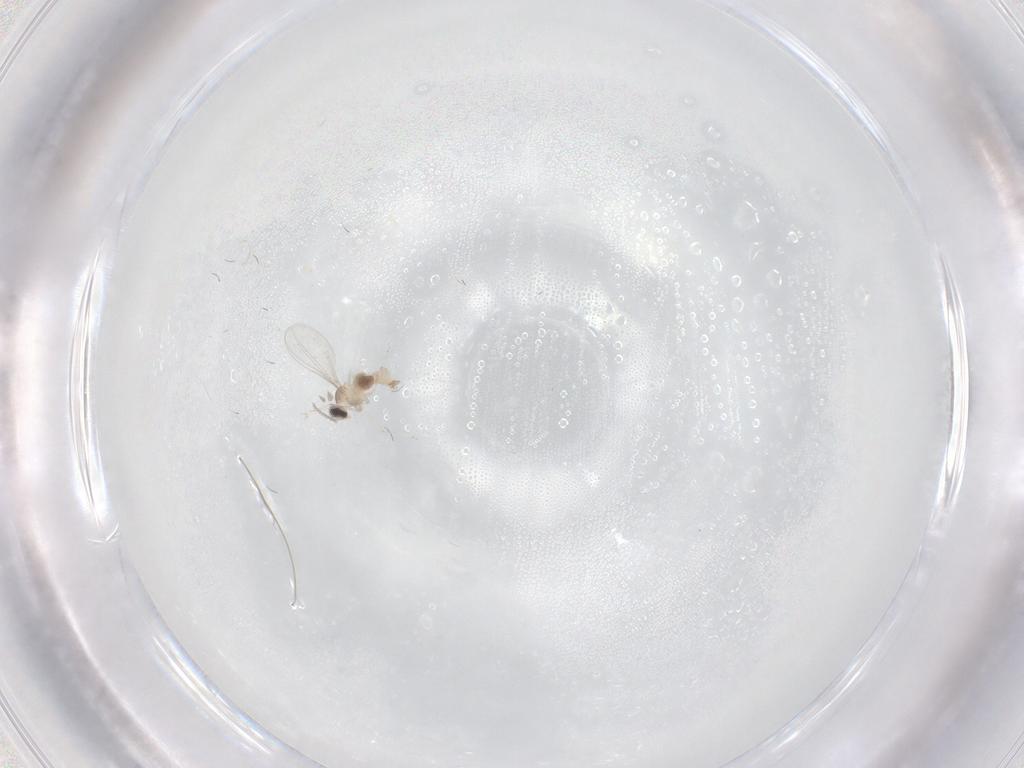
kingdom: Animalia
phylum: Arthropoda
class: Insecta
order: Diptera
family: Cecidomyiidae
